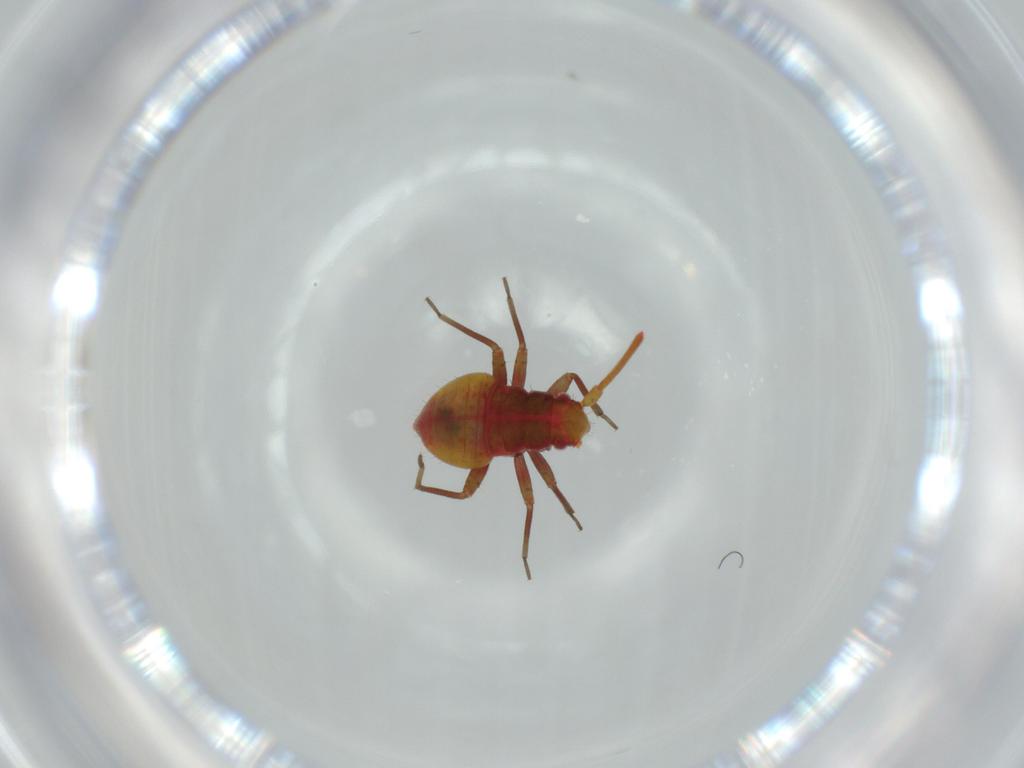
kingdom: Animalia
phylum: Arthropoda
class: Insecta
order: Hemiptera
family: Miridae
